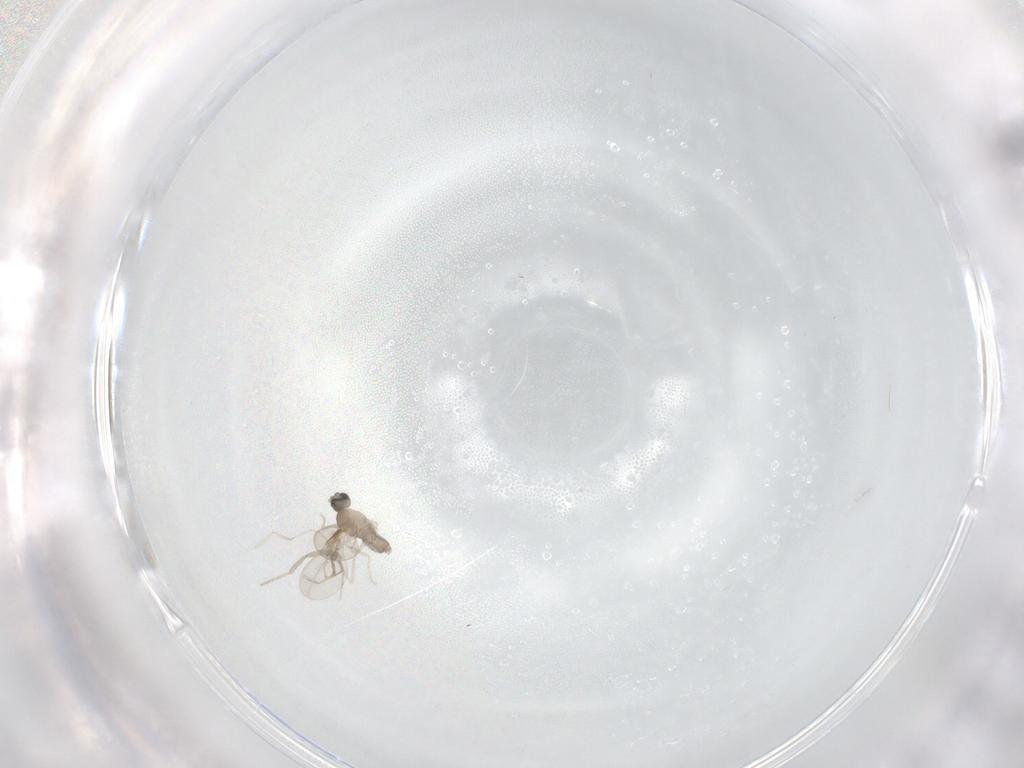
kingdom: Animalia
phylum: Arthropoda
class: Insecta
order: Diptera
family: Cecidomyiidae
